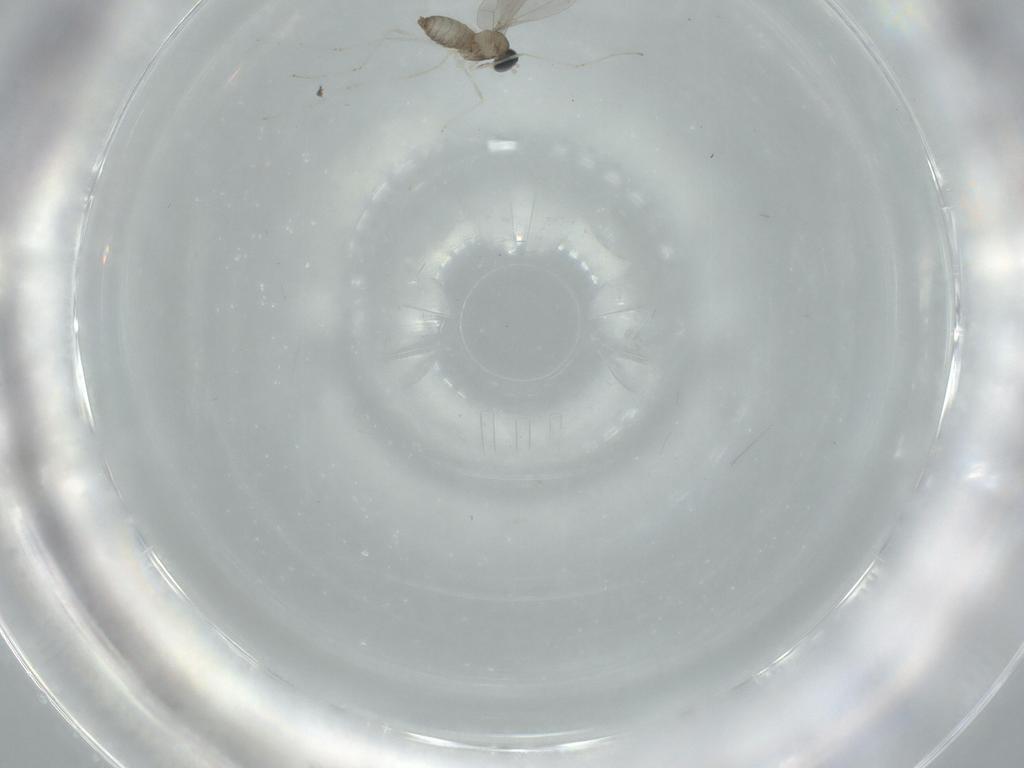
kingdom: Animalia
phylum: Arthropoda
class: Insecta
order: Diptera
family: Cecidomyiidae
